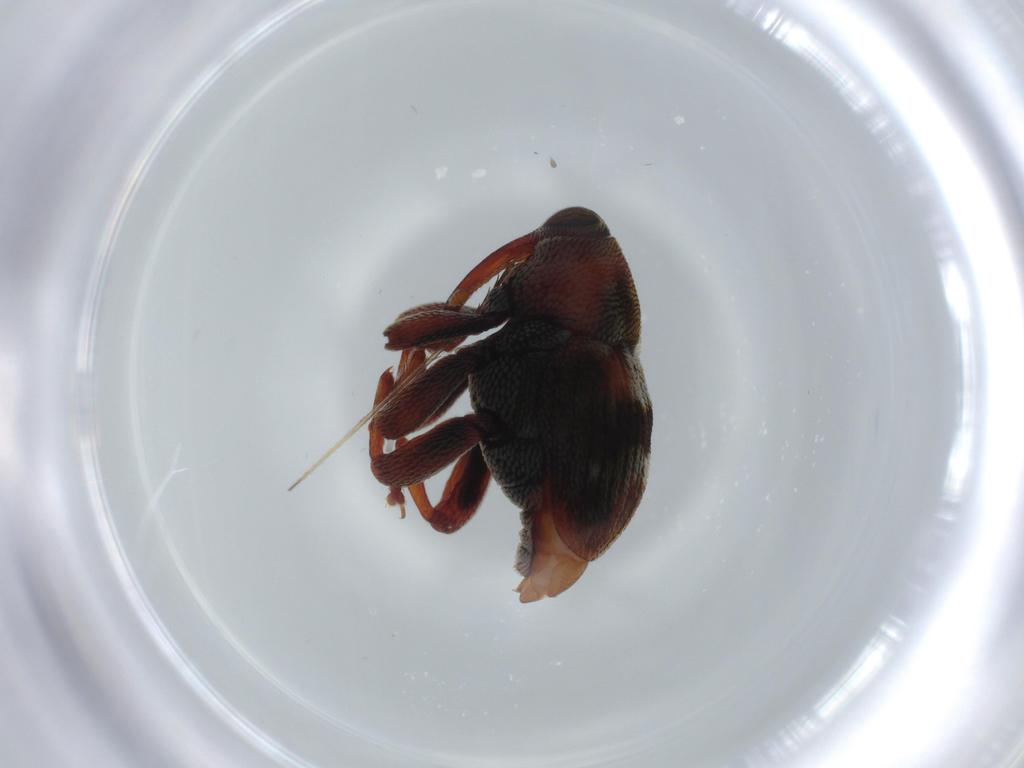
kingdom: Animalia
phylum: Arthropoda
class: Insecta
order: Coleoptera
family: Curculionidae
